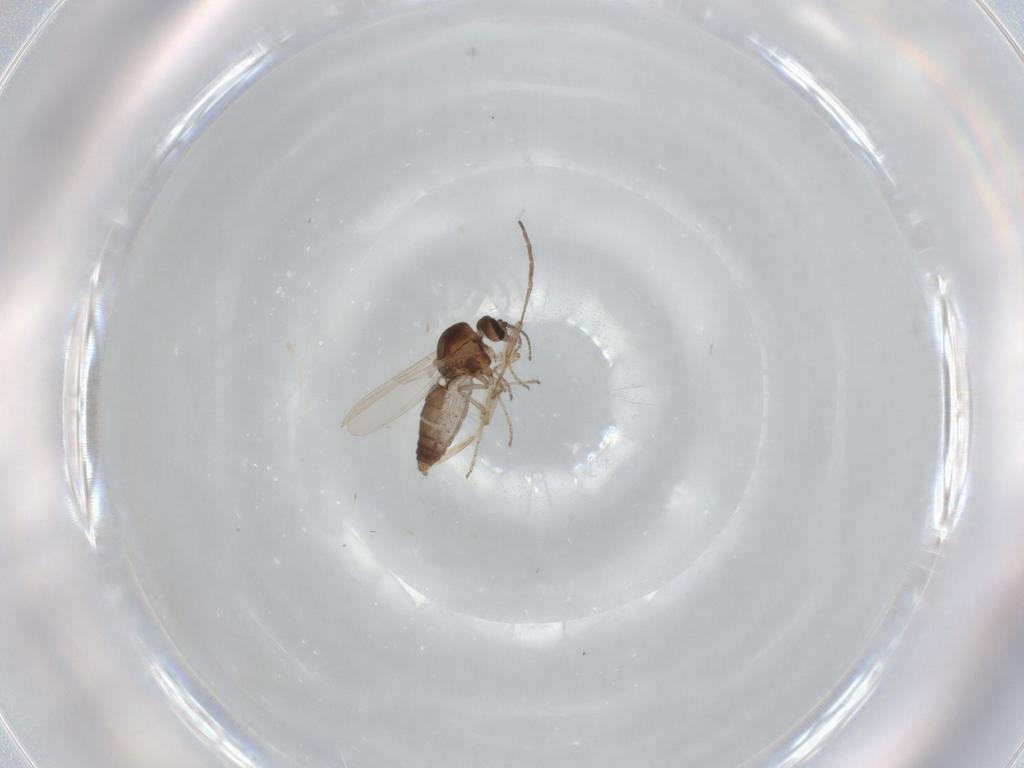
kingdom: Animalia
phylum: Arthropoda
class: Insecta
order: Diptera
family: Ceratopogonidae
